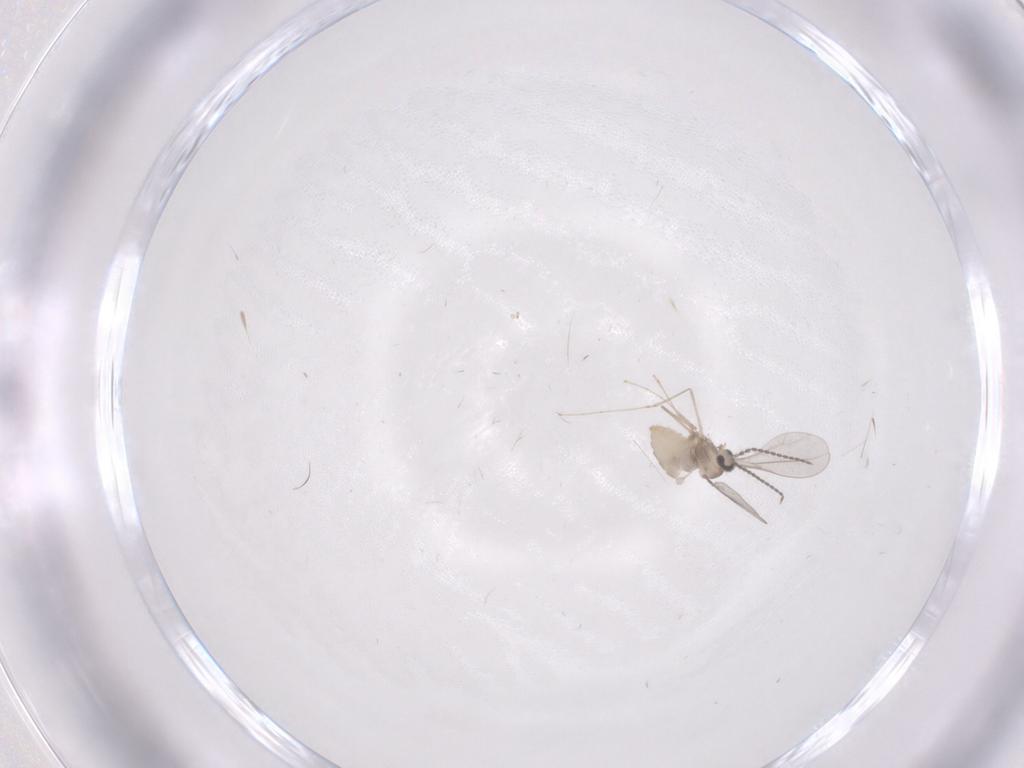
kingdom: Animalia
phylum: Arthropoda
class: Insecta
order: Diptera
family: Cecidomyiidae
